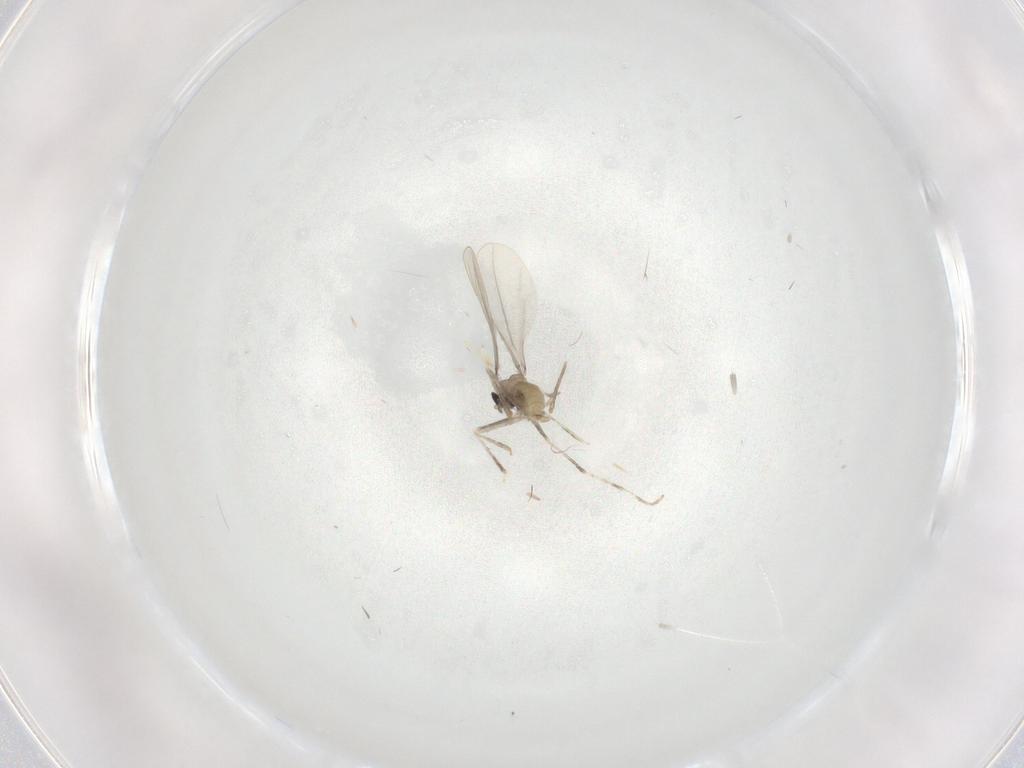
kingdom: Animalia
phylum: Arthropoda
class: Insecta
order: Diptera
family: Cecidomyiidae
